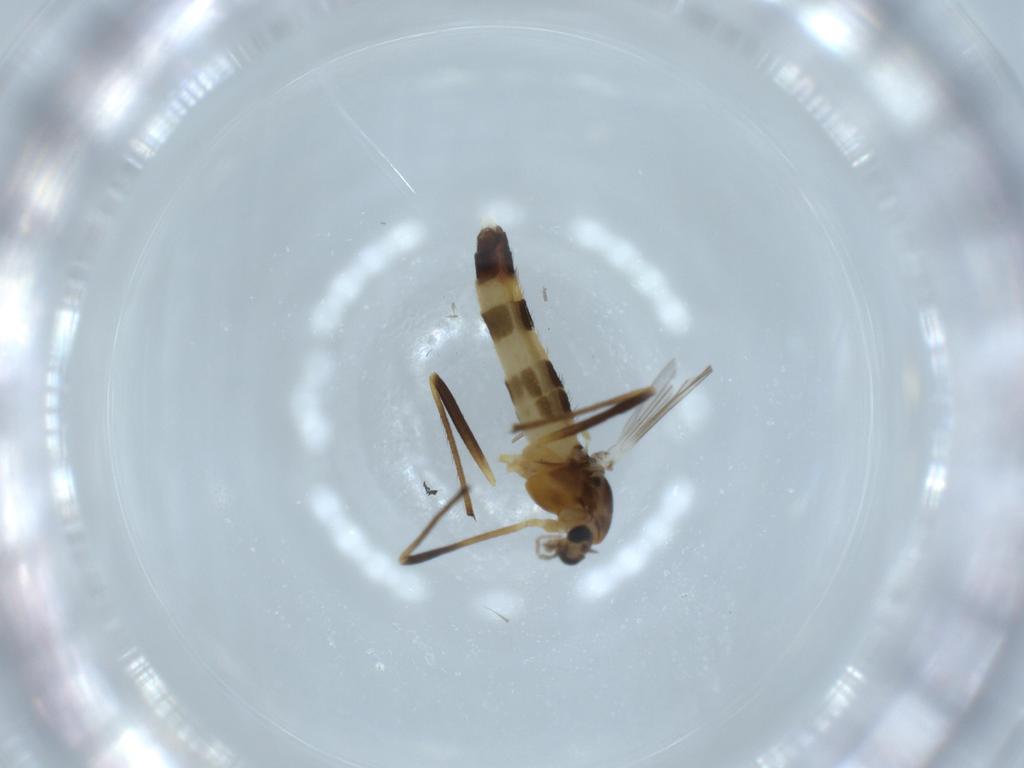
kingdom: Animalia
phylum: Arthropoda
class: Insecta
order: Diptera
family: Chironomidae
